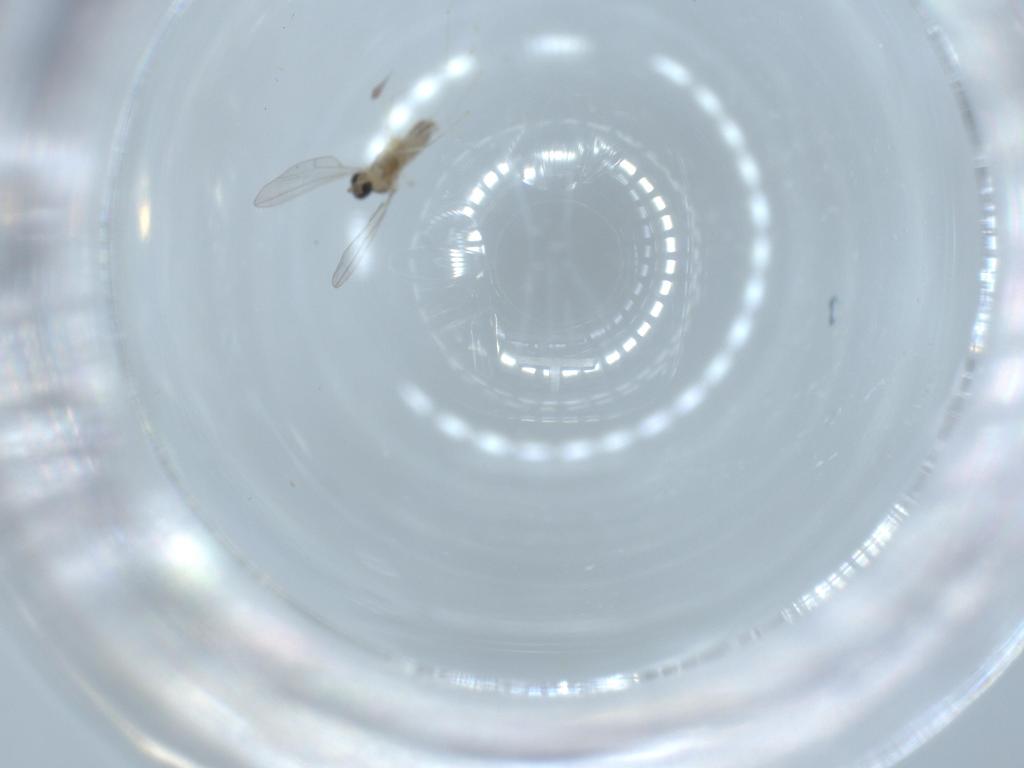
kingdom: Animalia
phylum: Arthropoda
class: Insecta
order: Diptera
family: Cecidomyiidae
